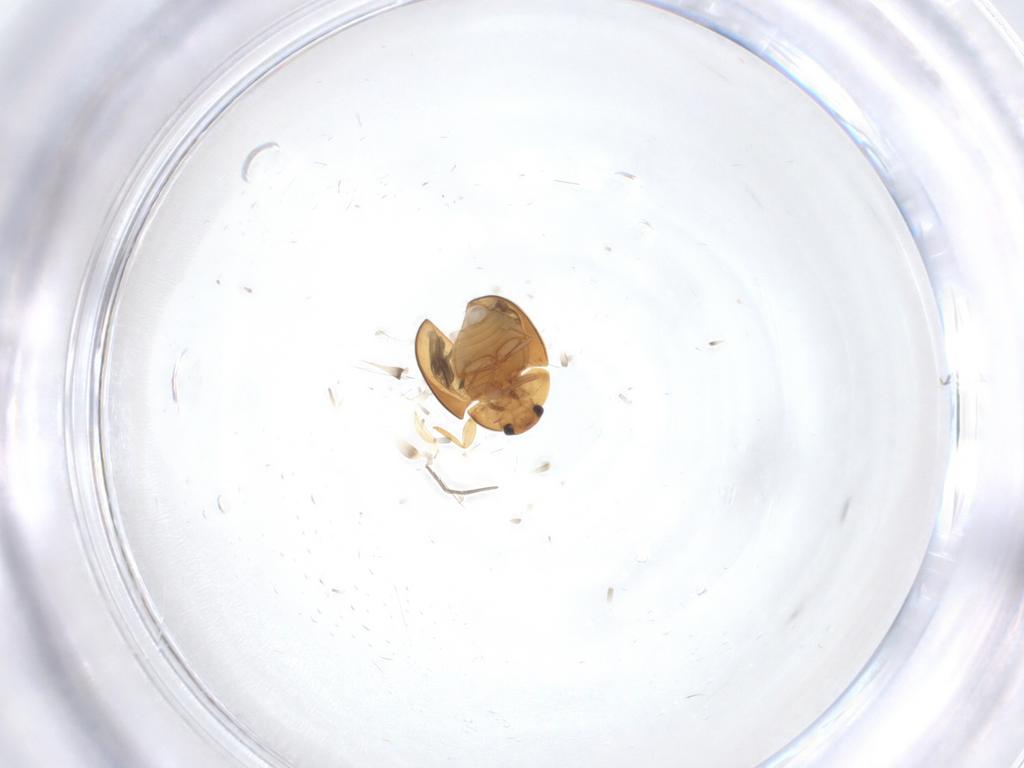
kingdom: Animalia
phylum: Arthropoda
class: Insecta
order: Coleoptera
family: Phalacridae
